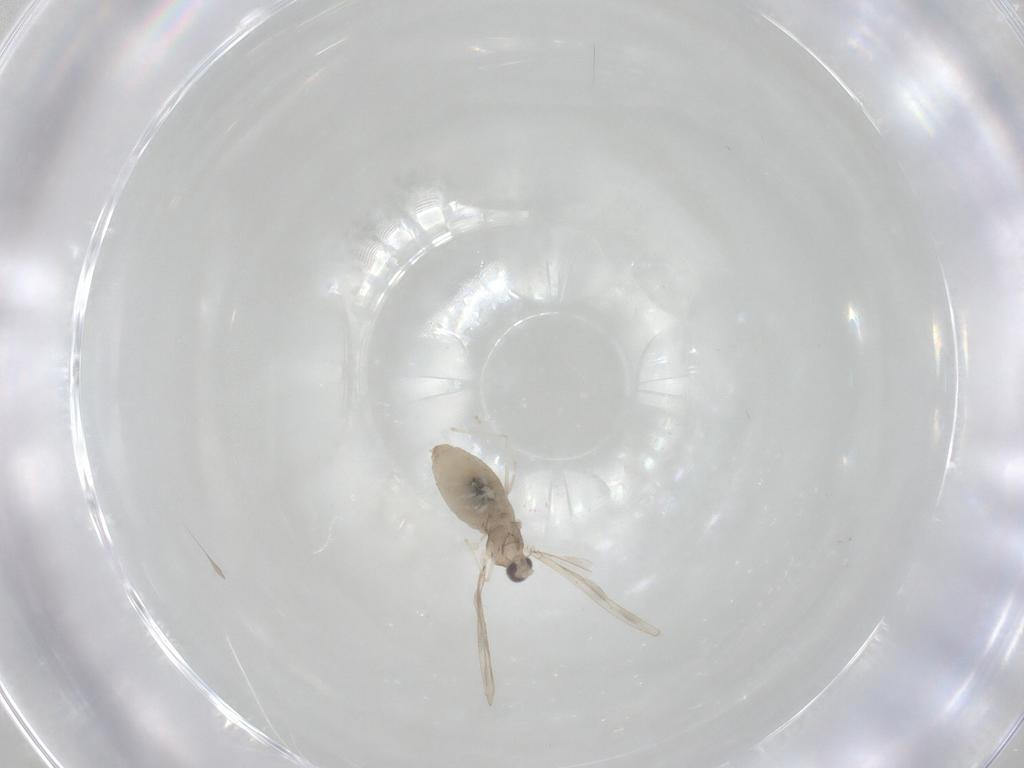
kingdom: Animalia
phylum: Arthropoda
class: Insecta
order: Diptera
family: Cecidomyiidae
